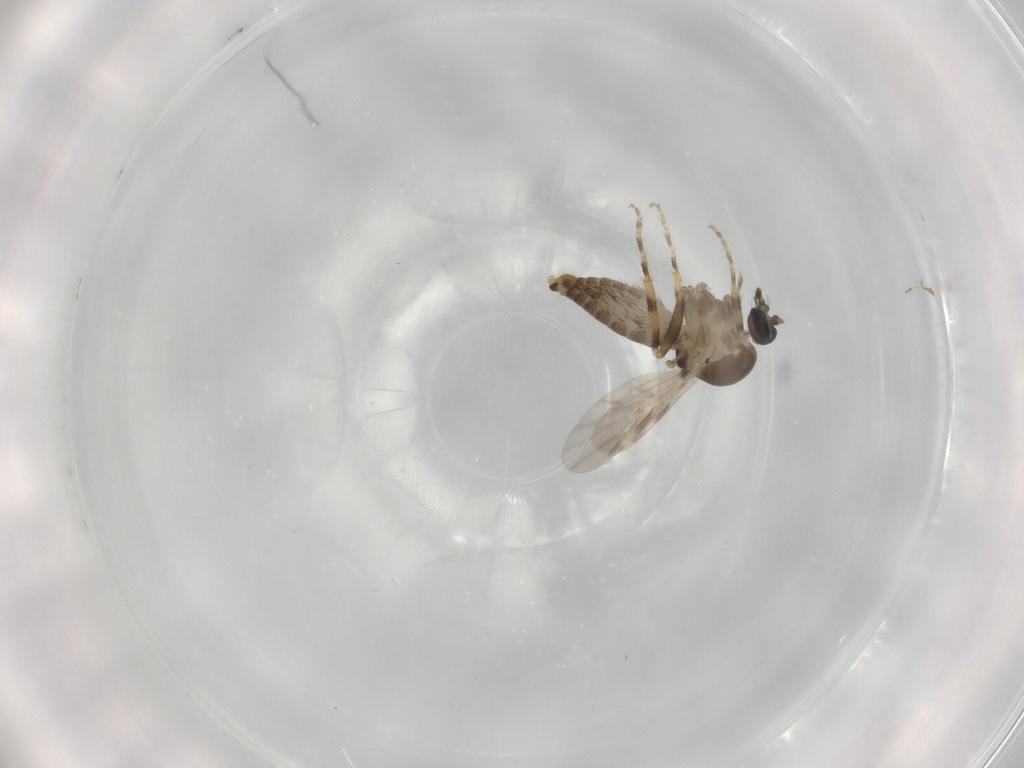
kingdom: Animalia
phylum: Arthropoda
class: Insecta
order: Diptera
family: Ceratopogonidae
